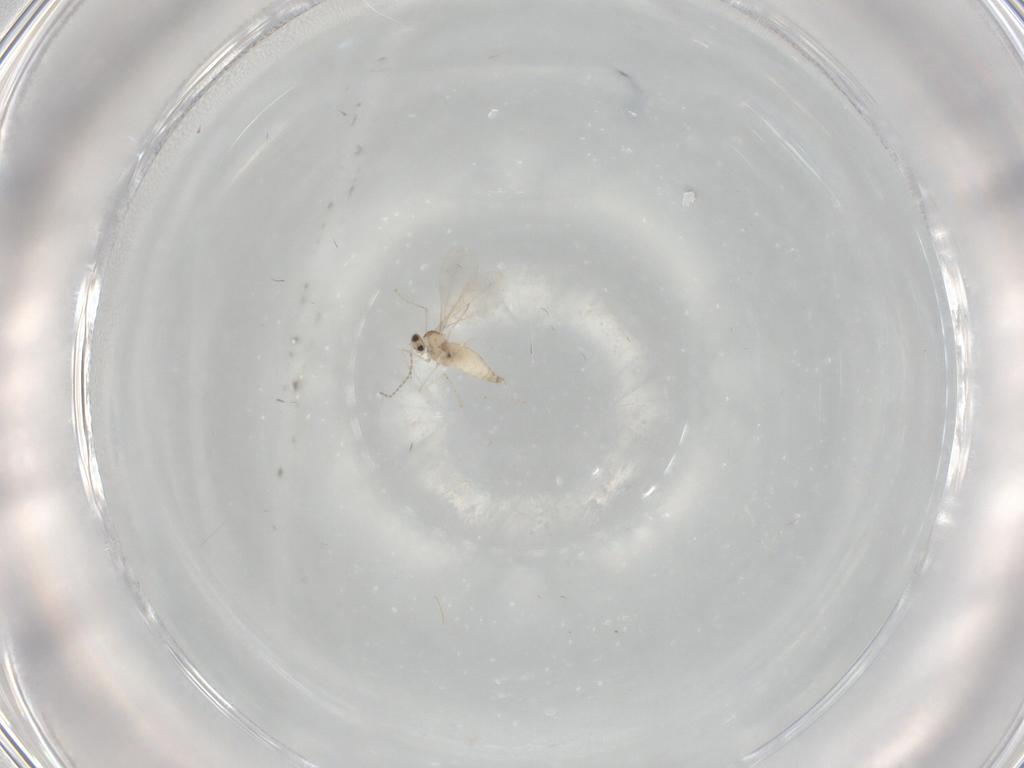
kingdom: Animalia
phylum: Arthropoda
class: Insecta
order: Diptera
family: Cecidomyiidae
